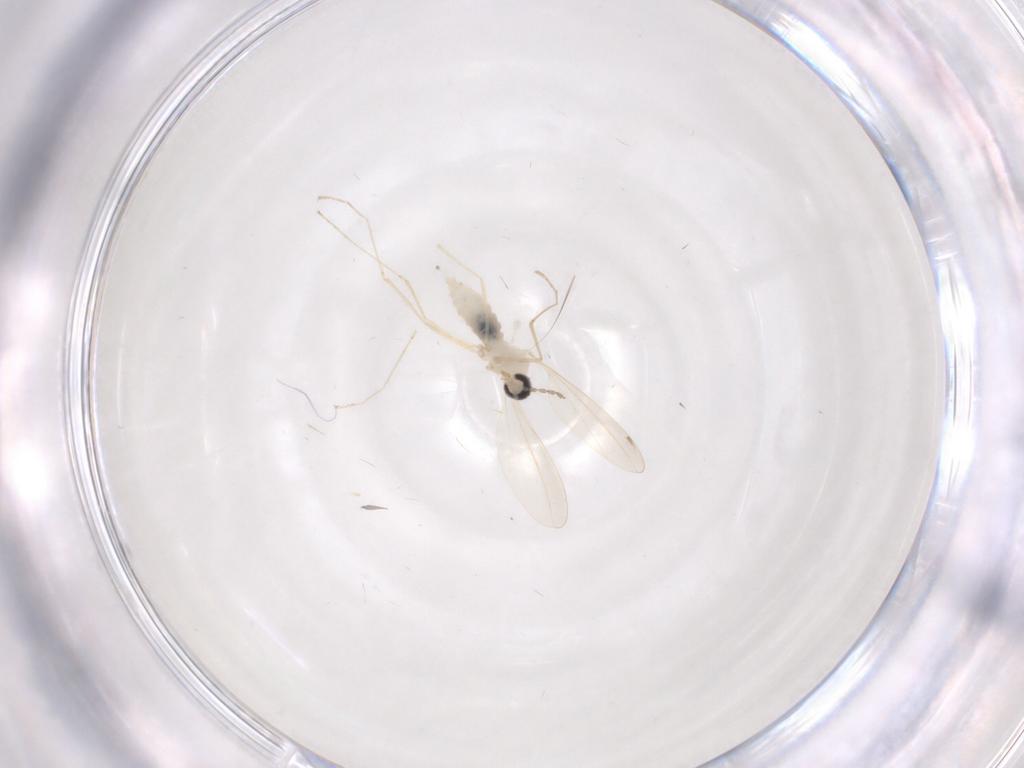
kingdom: Animalia
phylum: Arthropoda
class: Insecta
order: Diptera
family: Cecidomyiidae
